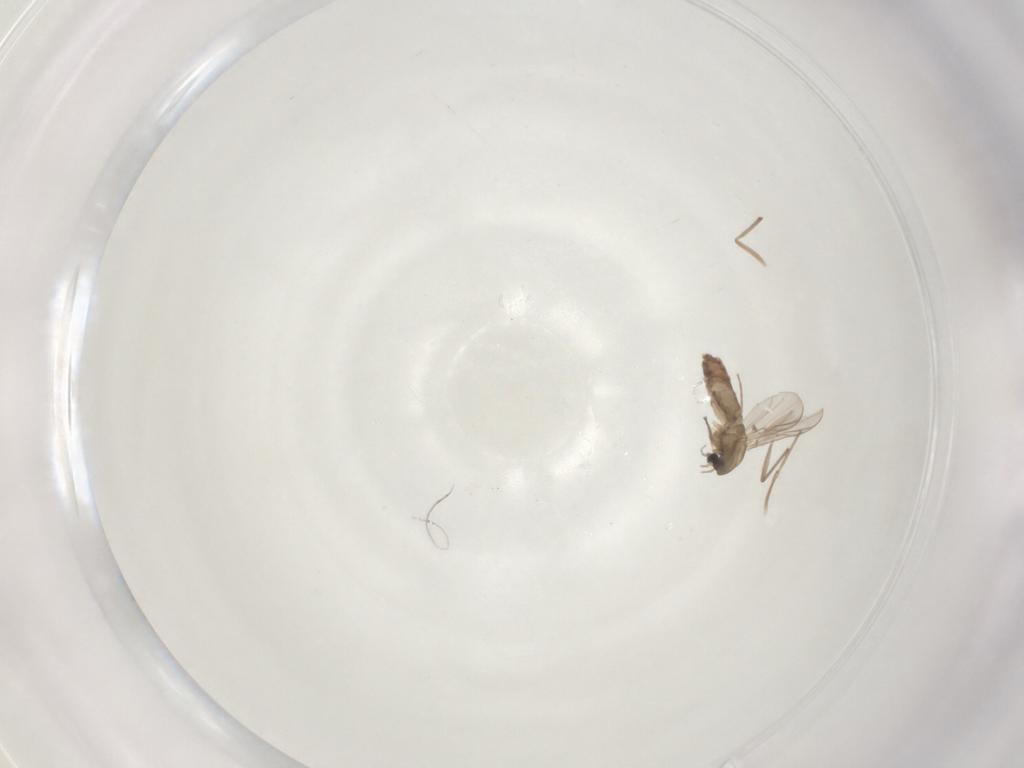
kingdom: Animalia
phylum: Arthropoda
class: Insecta
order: Diptera
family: Chironomidae
